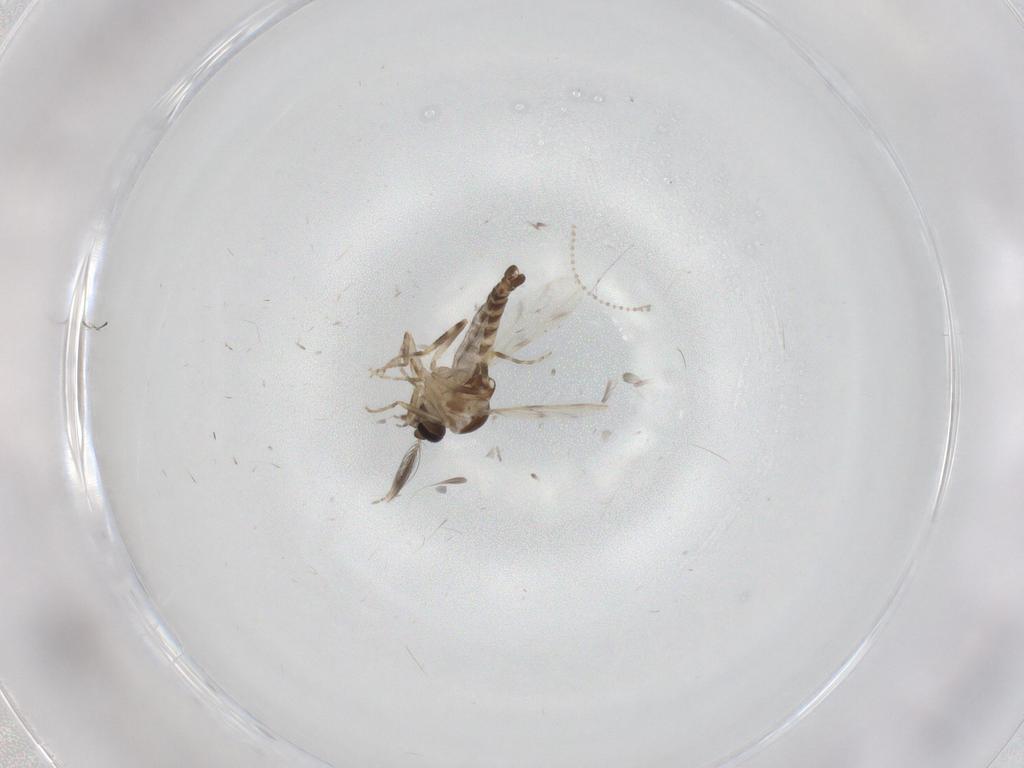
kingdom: Animalia
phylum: Arthropoda
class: Insecta
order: Diptera
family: Ceratopogonidae
